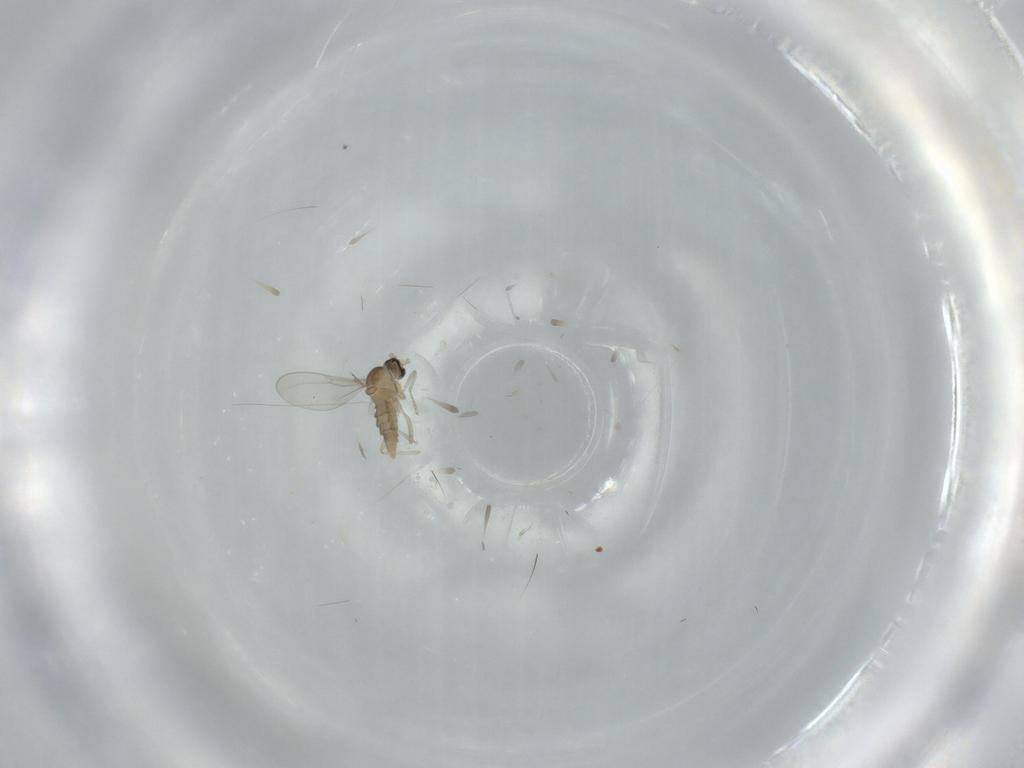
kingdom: Animalia
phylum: Arthropoda
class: Insecta
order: Diptera
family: Cecidomyiidae
